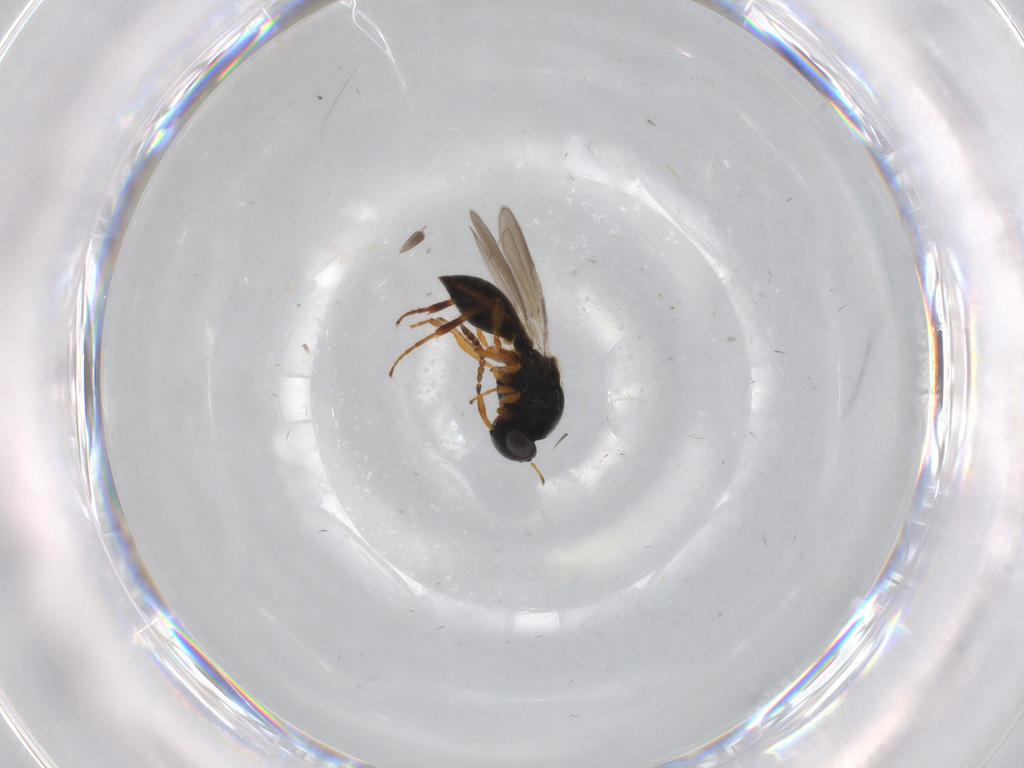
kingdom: Animalia
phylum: Arthropoda
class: Insecta
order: Hymenoptera
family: Platygastridae
